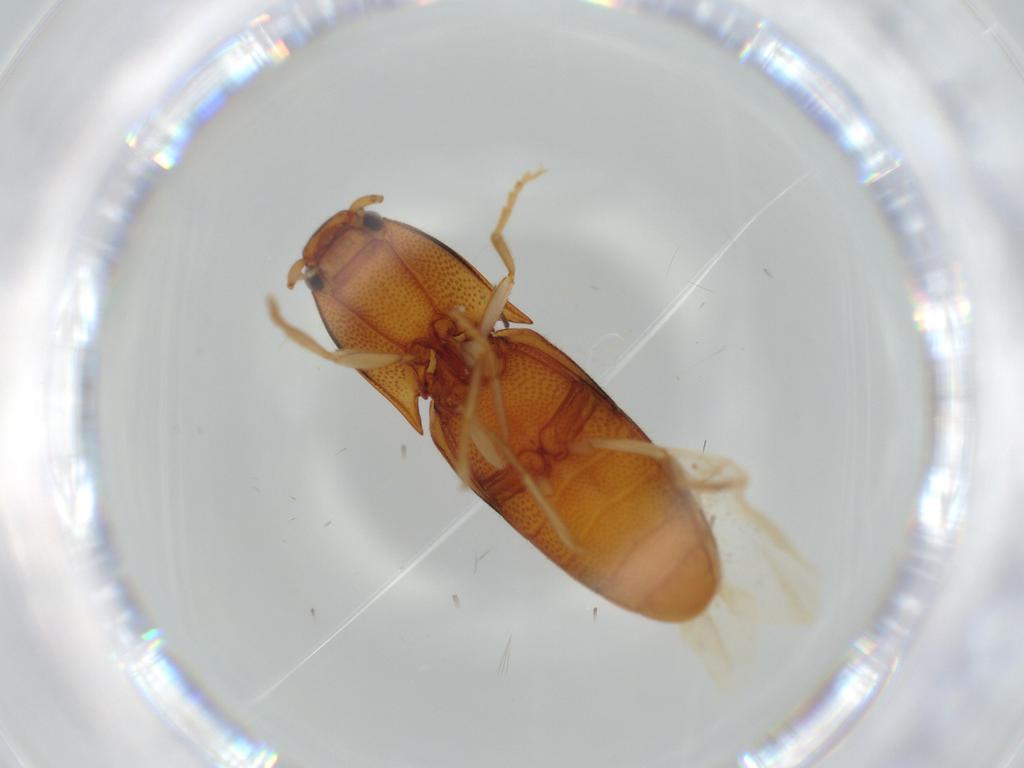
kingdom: Animalia
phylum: Arthropoda
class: Insecta
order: Coleoptera
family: Elateridae
